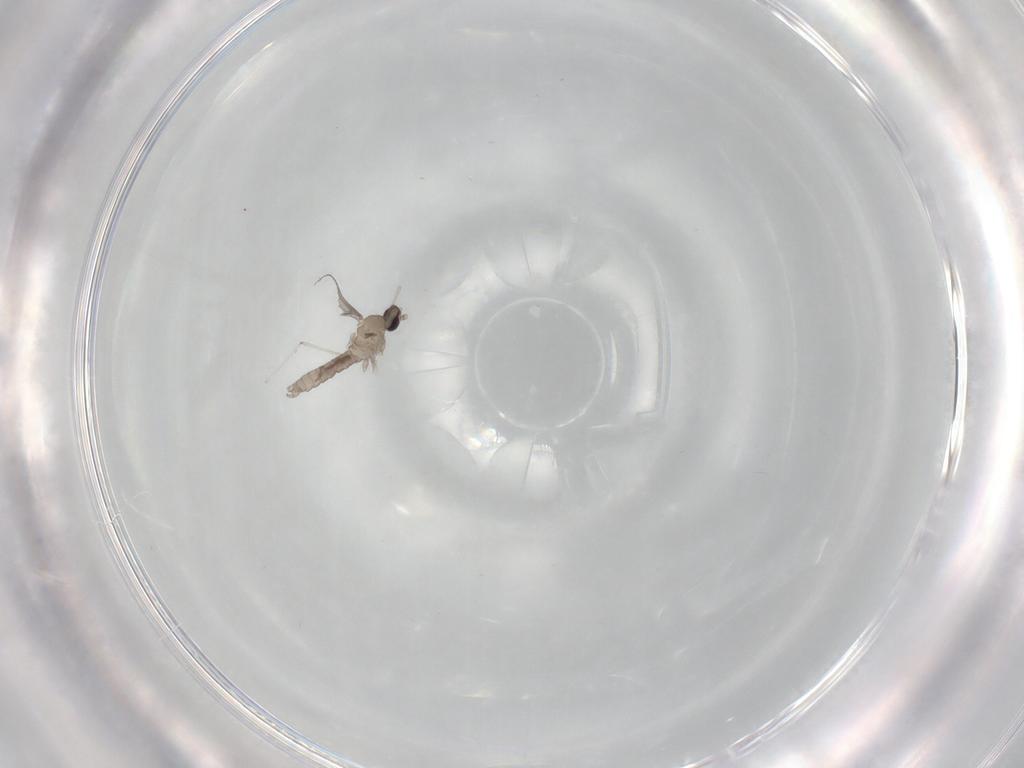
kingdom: Animalia
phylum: Arthropoda
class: Insecta
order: Diptera
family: Cecidomyiidae
